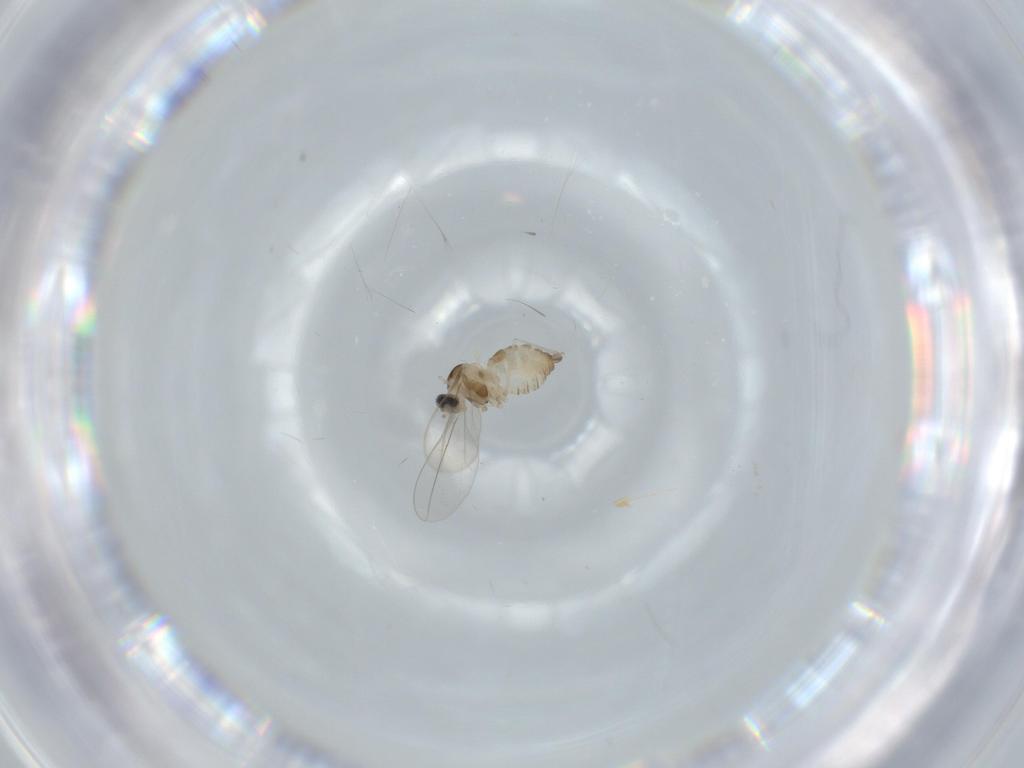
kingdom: Animalia
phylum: Arthropoda
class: Insecta
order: Diptera
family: Cecidomyiidae
